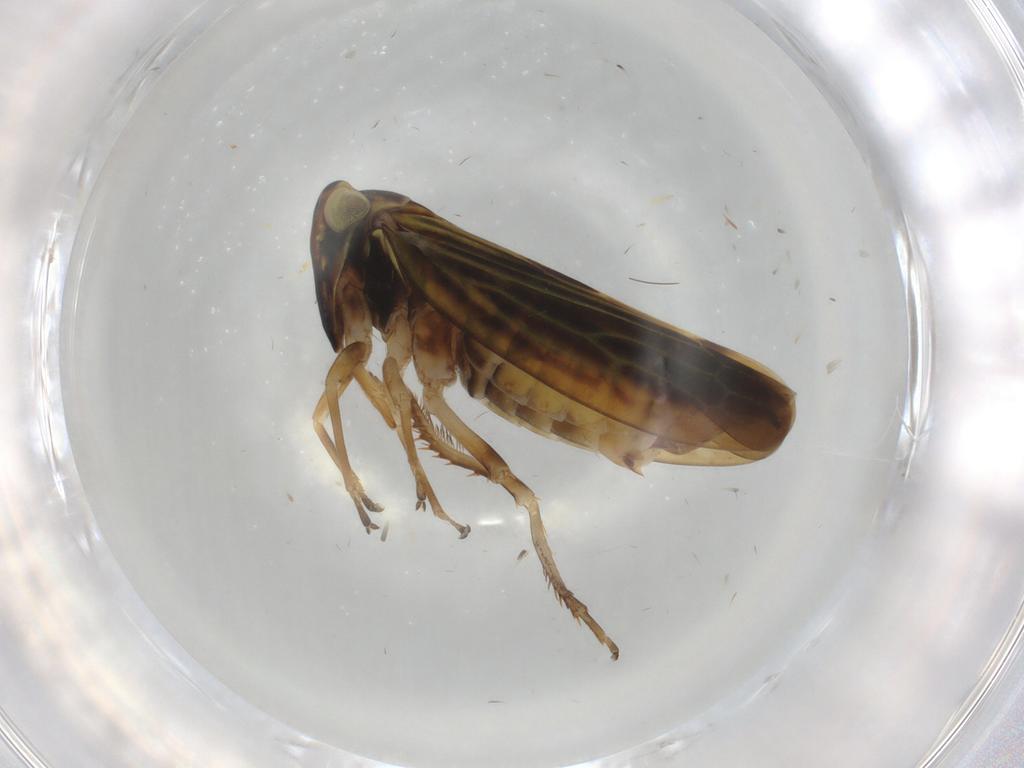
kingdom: Animalia
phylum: Arthropoda
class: Insecta
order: Hemiptera
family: Cicadellidae
